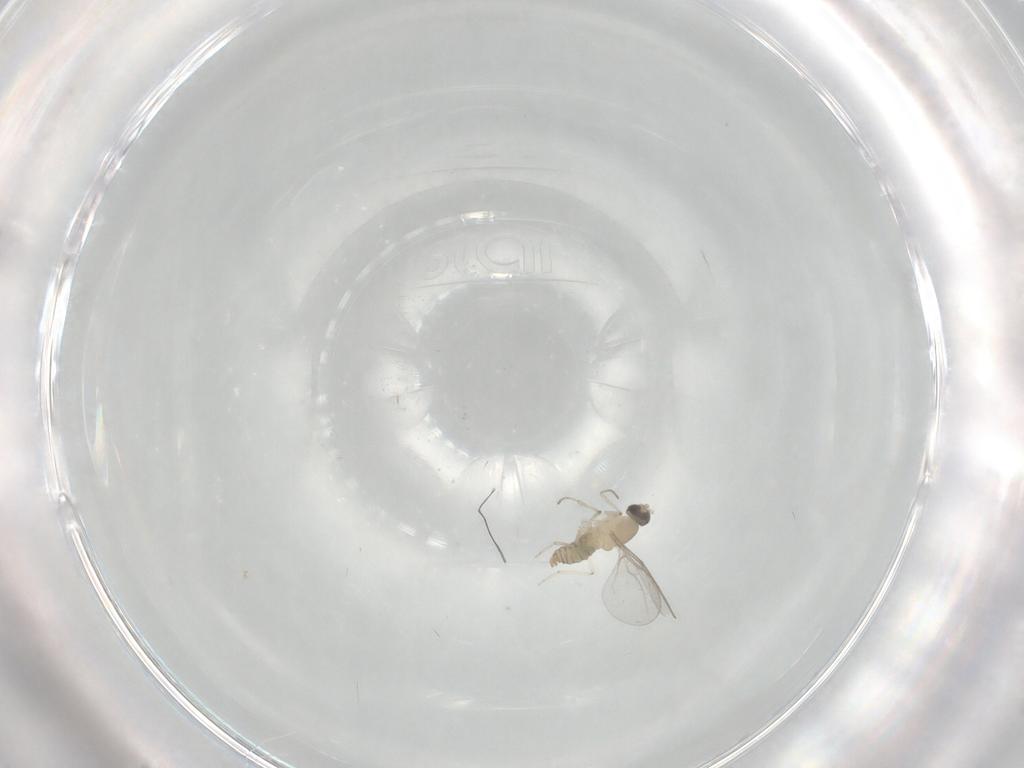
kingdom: Animalia
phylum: Arthropoda
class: Insecta
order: Diptera
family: Cecidomyiidae
